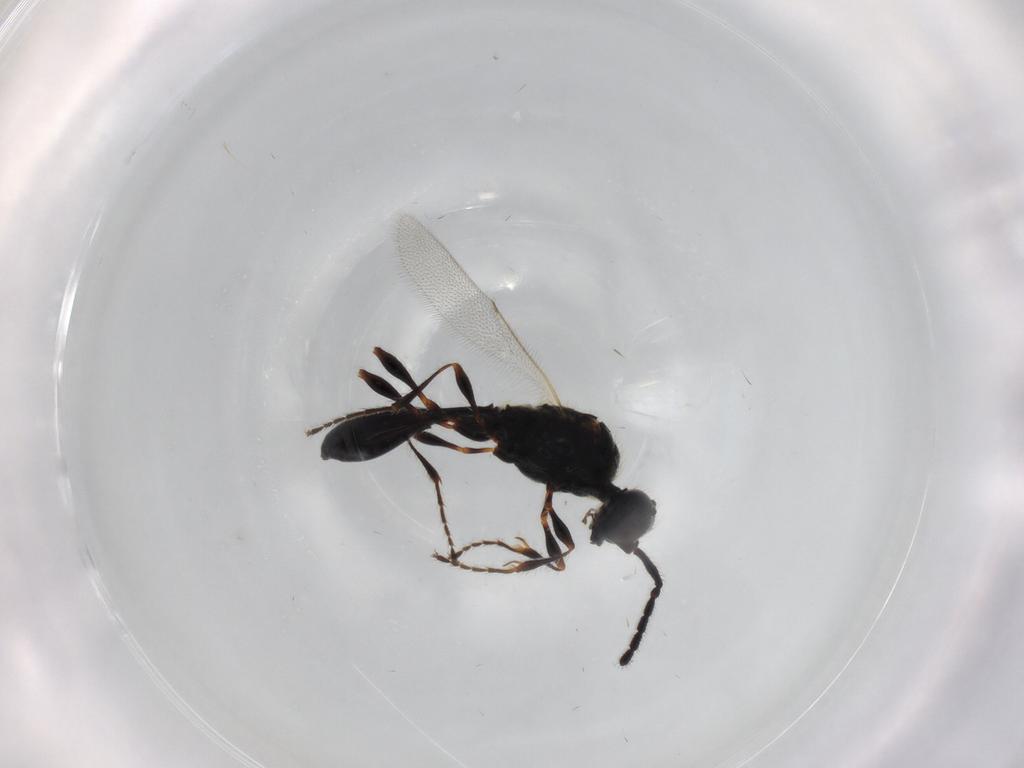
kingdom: Animalia
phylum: Arthropoda
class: Insecta
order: Hymenoptera
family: Diapriidae
